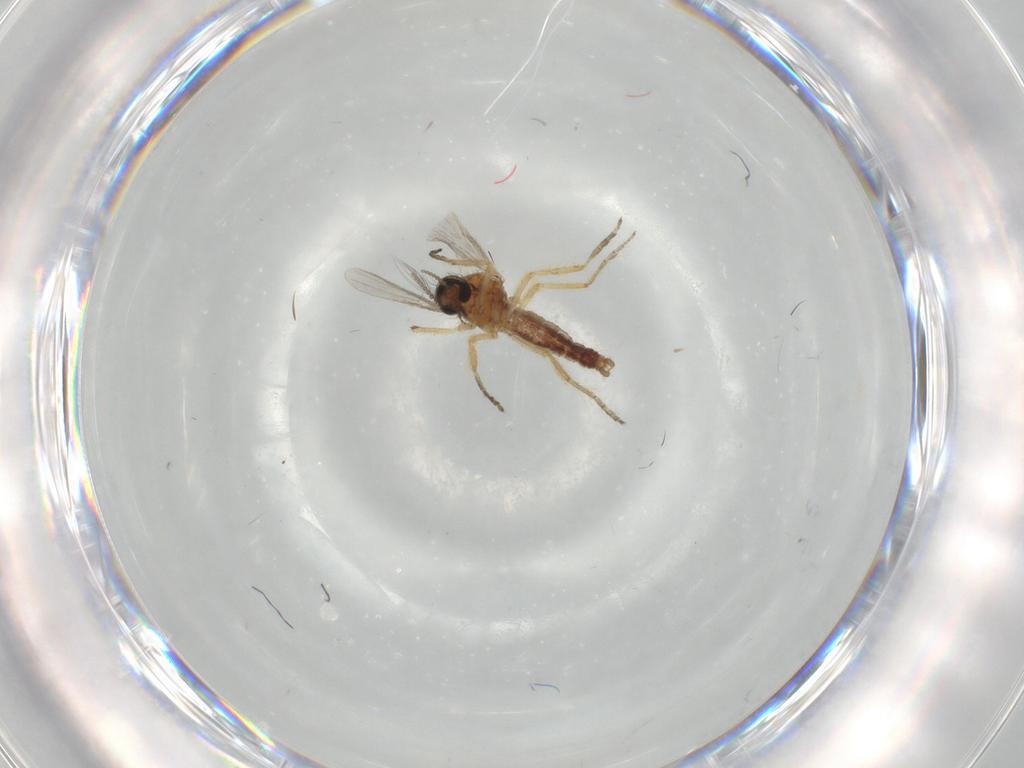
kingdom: Animalia
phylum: Arthropoda
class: Insecta
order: Diptera
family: Ceratopogonidae
